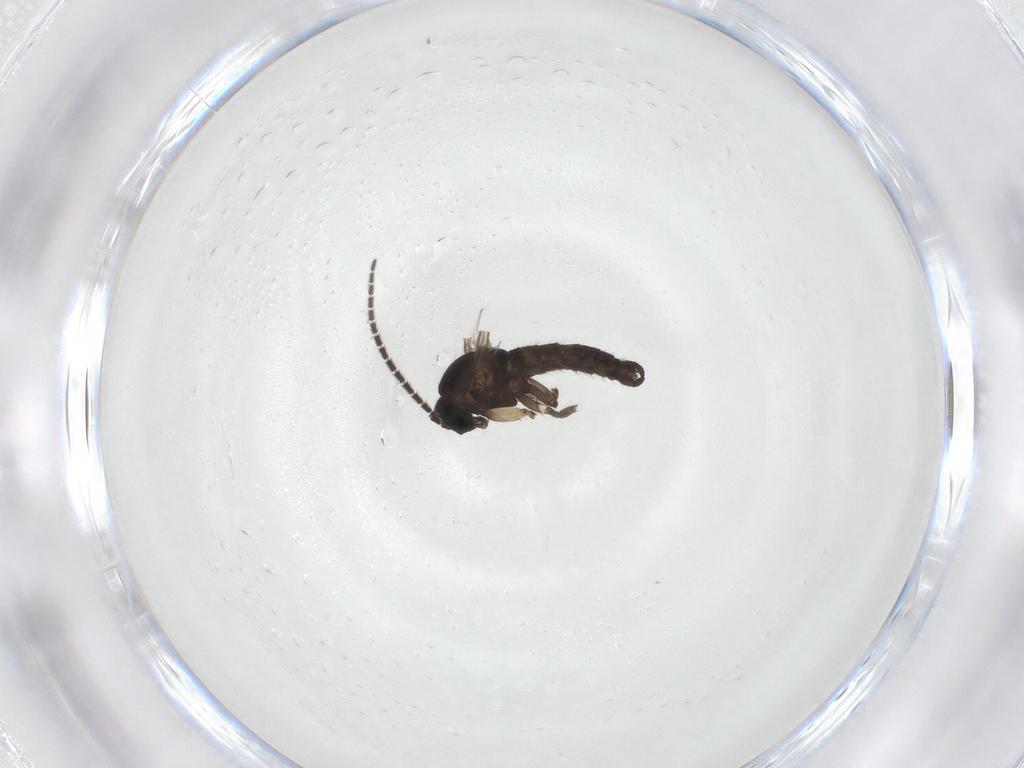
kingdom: Animalia
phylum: Arthropoda
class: Insecta
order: Diptera
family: Sciaridae
